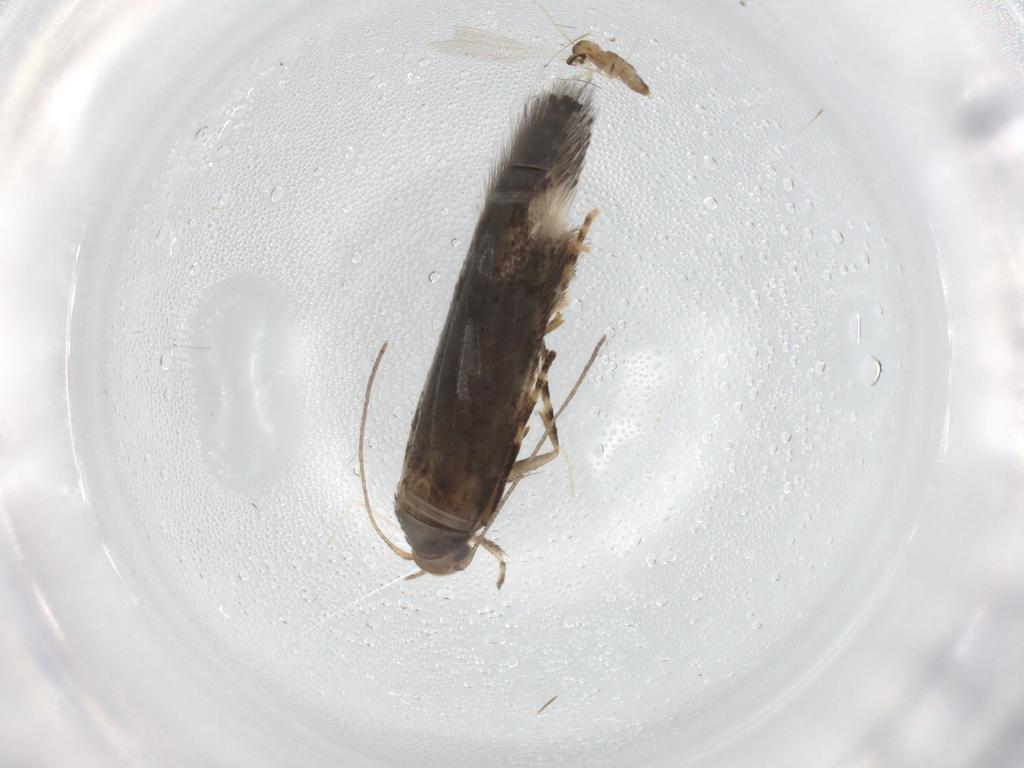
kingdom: Animalia
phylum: Arthropoda
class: Insecta
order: Lepidoptera
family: Elachistidae
